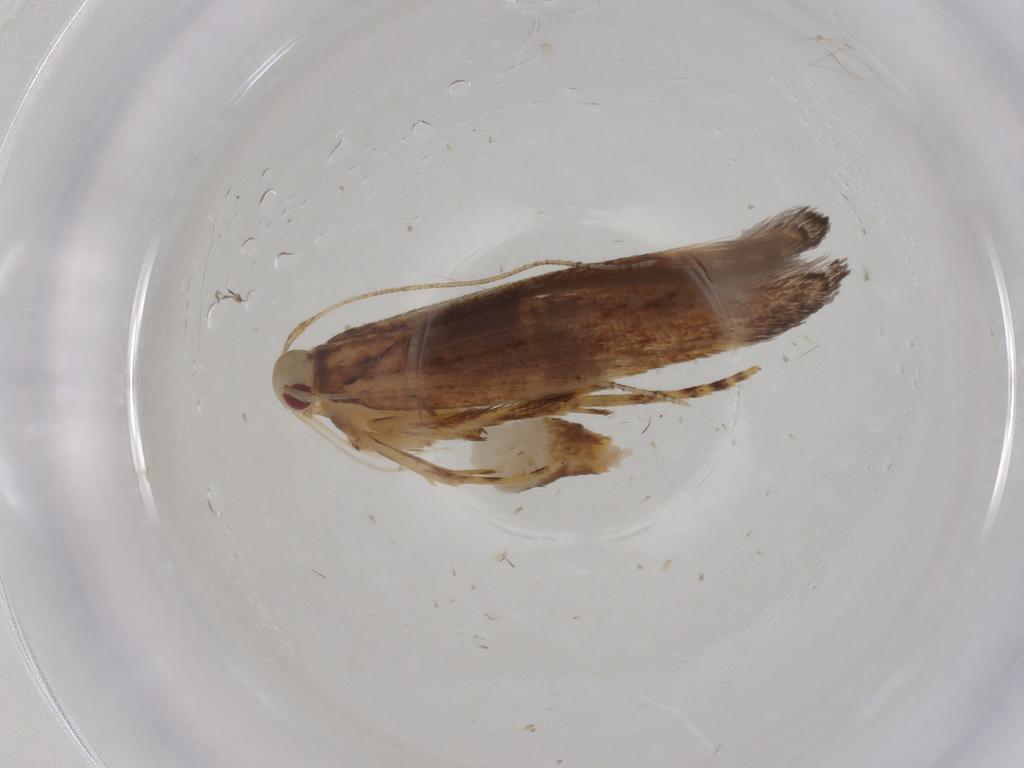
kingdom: Animalia
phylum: Arthropoda
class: Insecta
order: Lepidoptera
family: Cosmopterigidae
